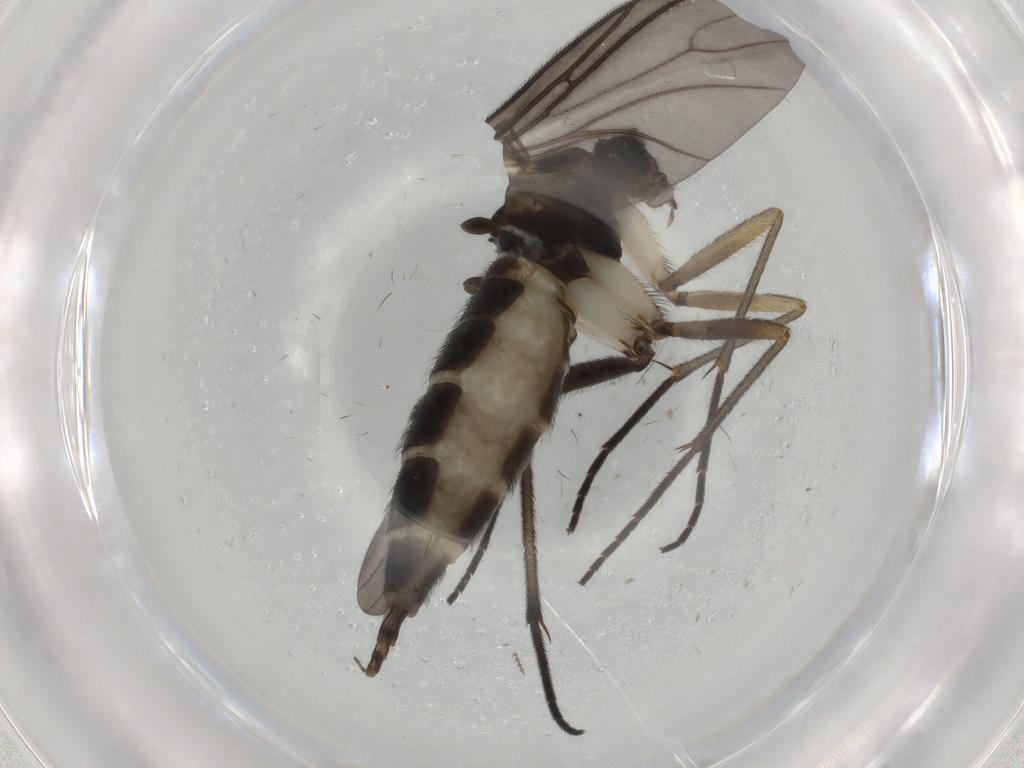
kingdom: Animalia
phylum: Arthropoda
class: Insecta
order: Diptera
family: Sciaridae
